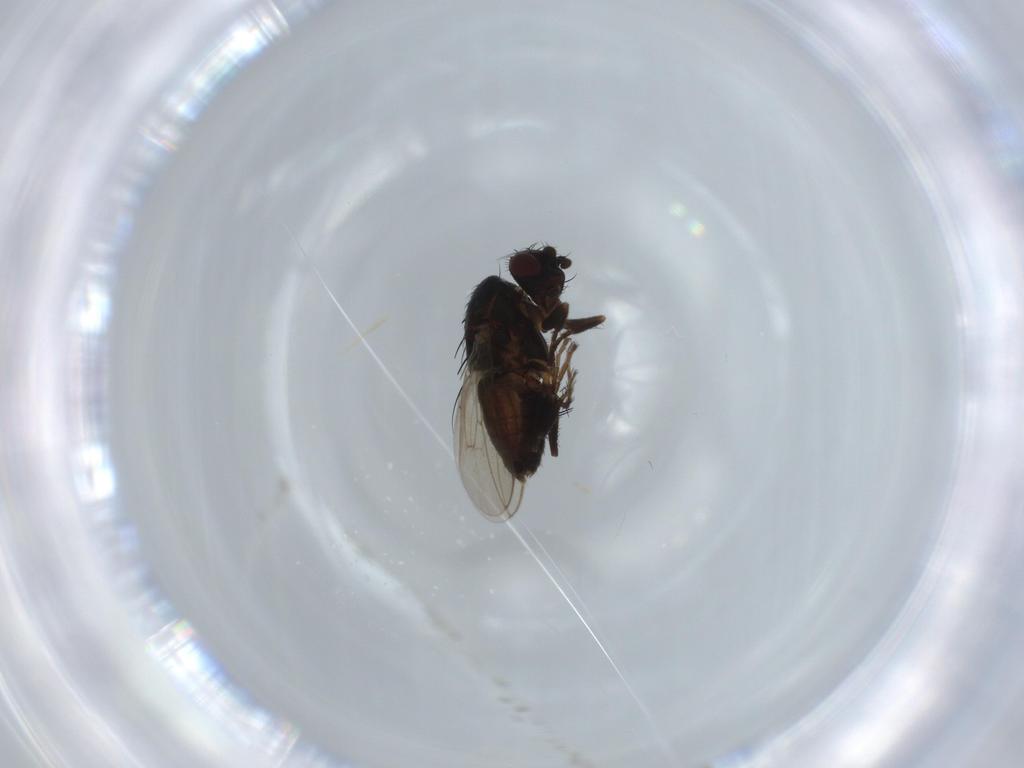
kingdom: Animalia
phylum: Arthropoda
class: Insecta
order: Diptera
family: Sphaeroceridae
